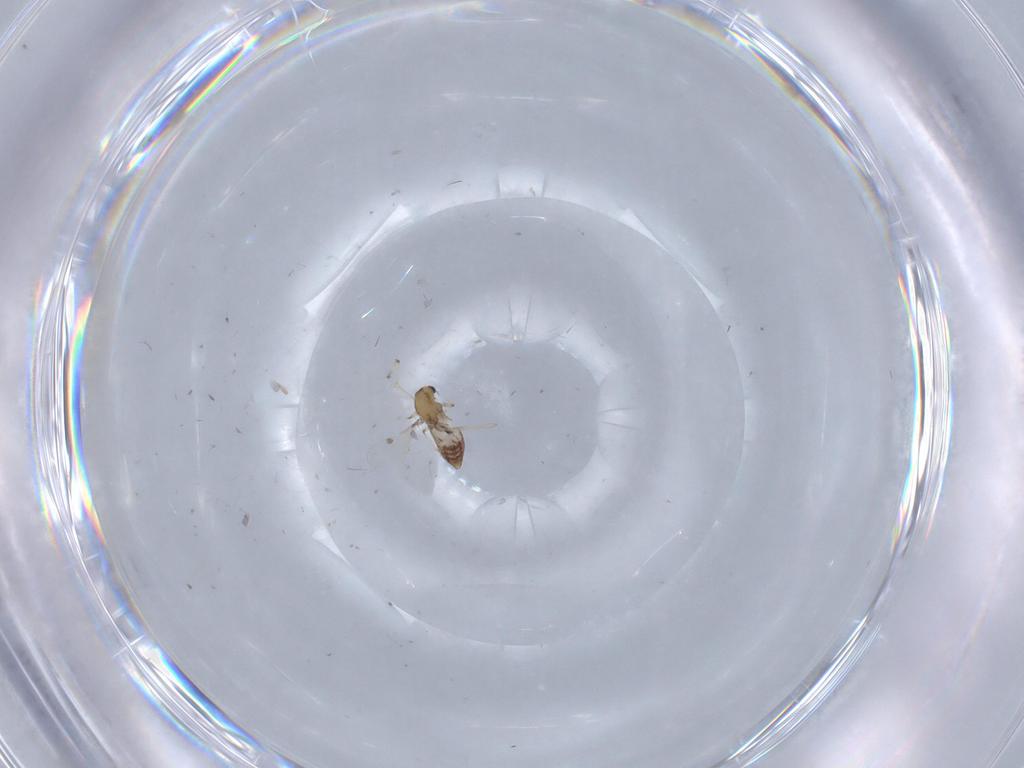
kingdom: Animalia
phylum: Arthropoda
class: Insecta
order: Diptera
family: Chironomidae
